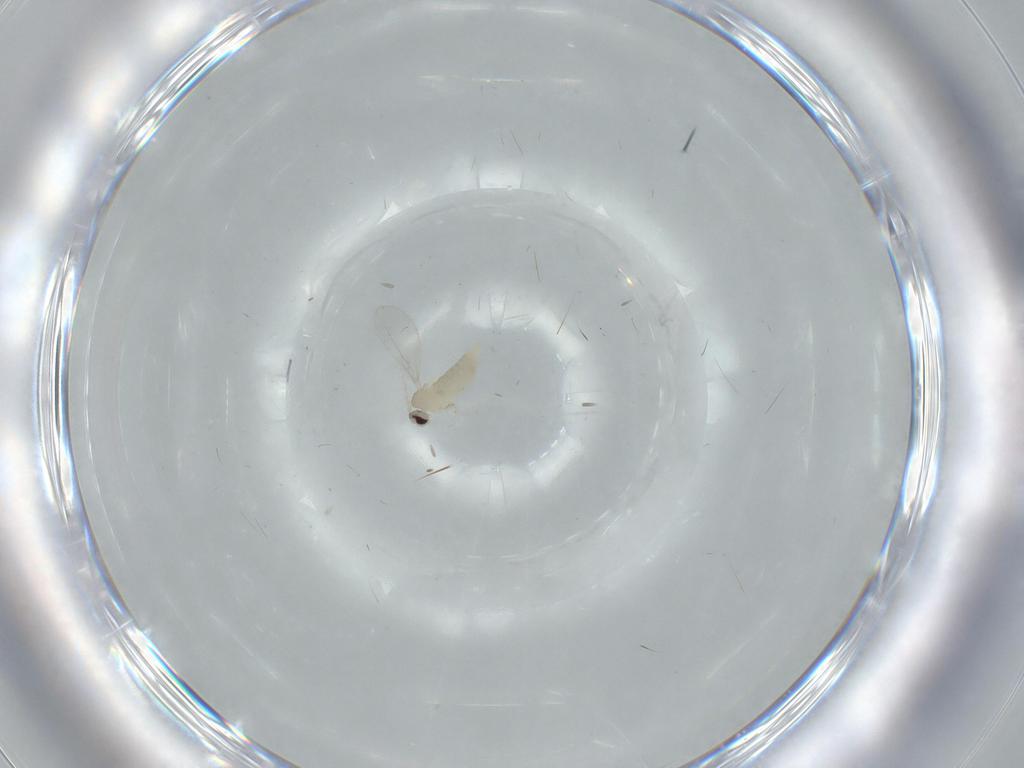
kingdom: Animalia
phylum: Arthropoda
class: Insecta
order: Diptera
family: Cecidomyiidae
